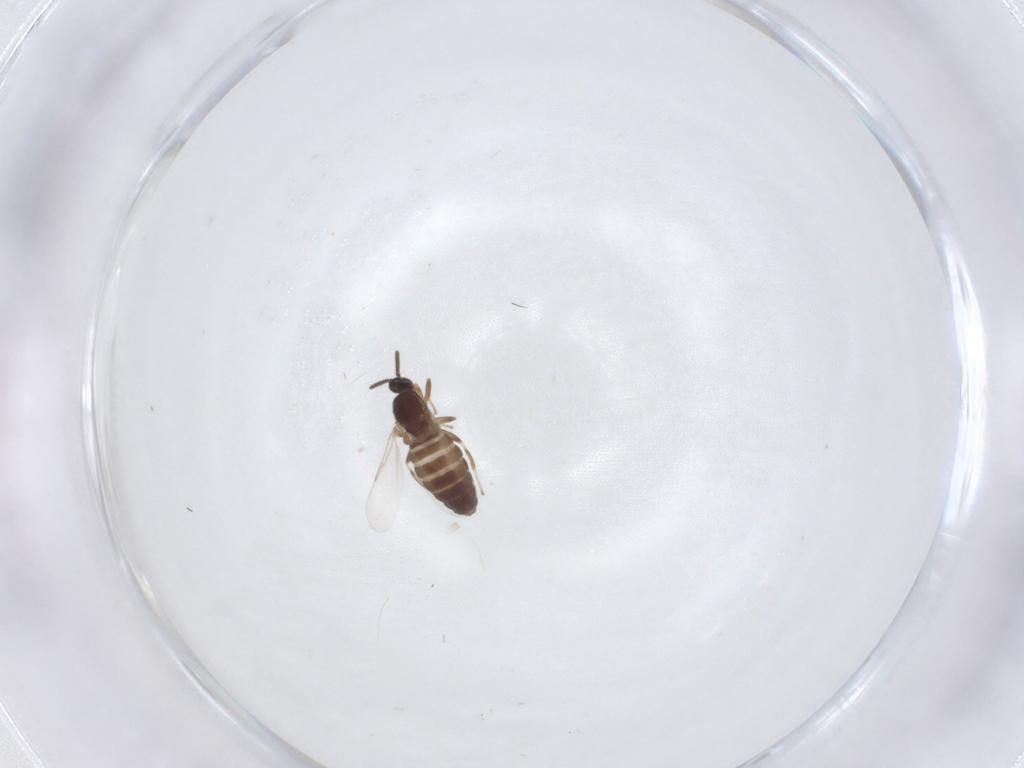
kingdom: Animalia
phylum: Arthropoda
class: Insecta
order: Diptera
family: Scatopsidae
